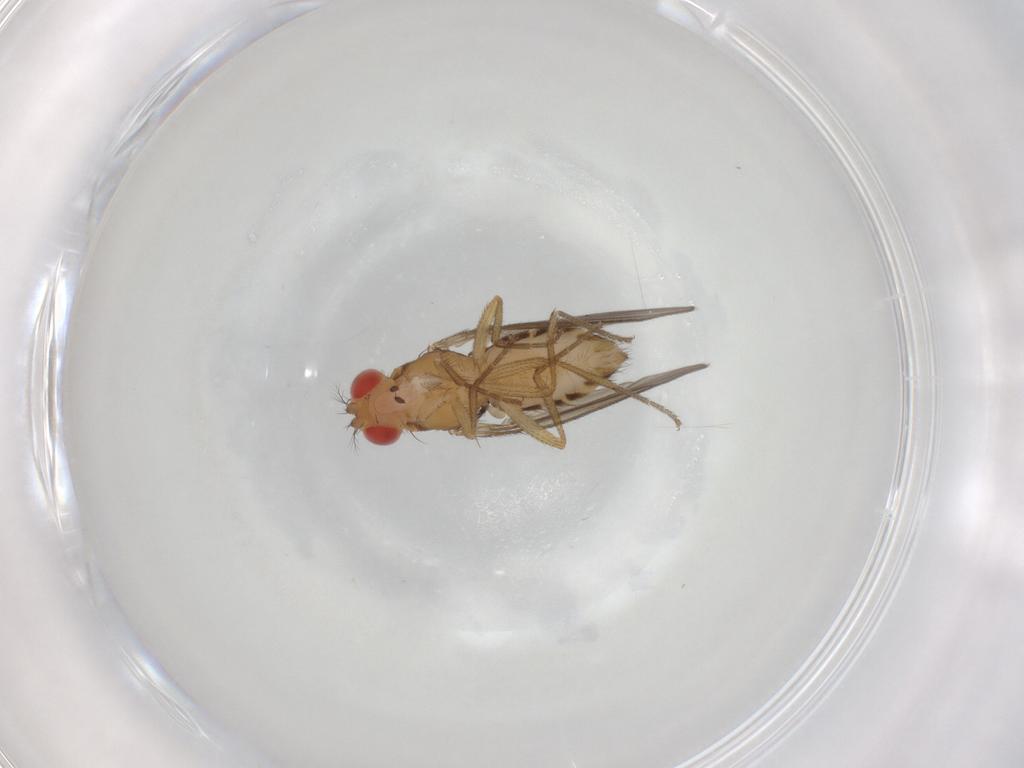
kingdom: Animalia
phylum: Arthropoda
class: Insecta
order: Diptera
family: Drosophilidae
